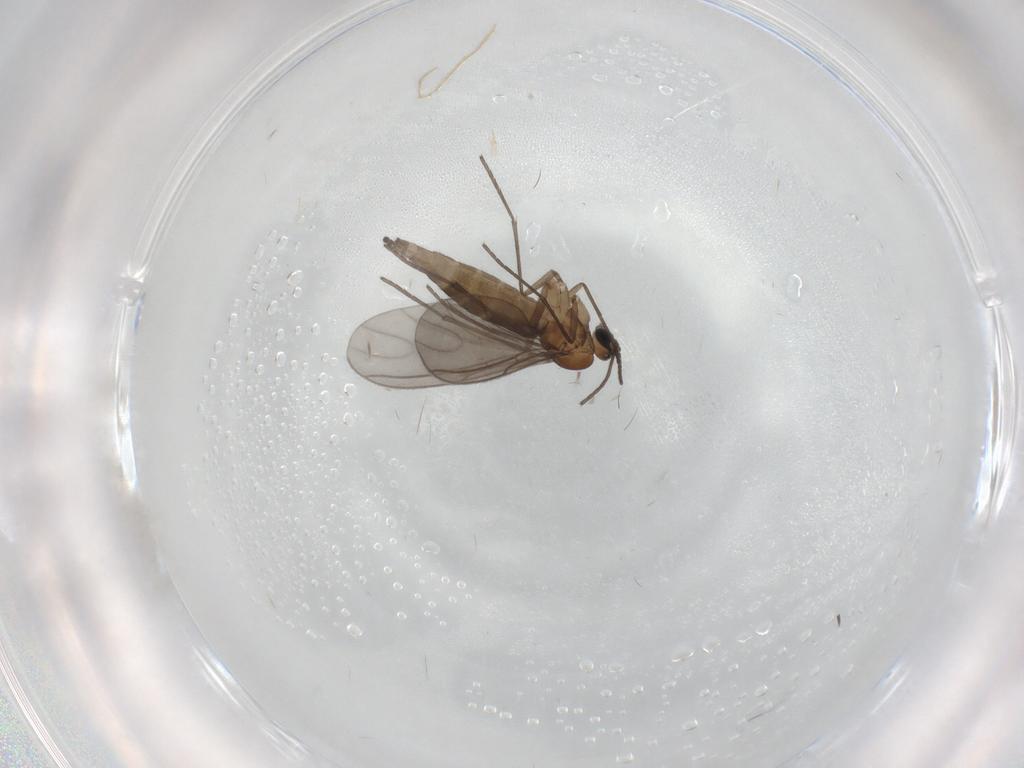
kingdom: Animalia
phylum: Arthropoda
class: Insecta
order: Diptera
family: Sciaridae
